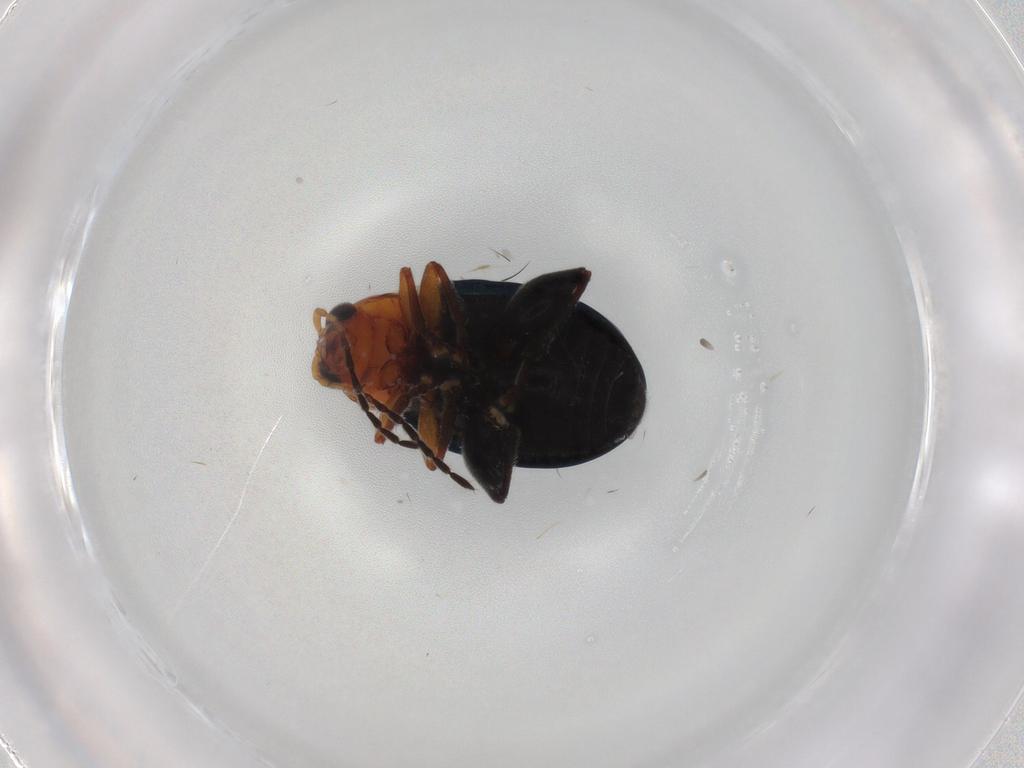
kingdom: Animalia
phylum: Arthropoda
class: Insecta
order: Coleoptera
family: Chrysomelidae
